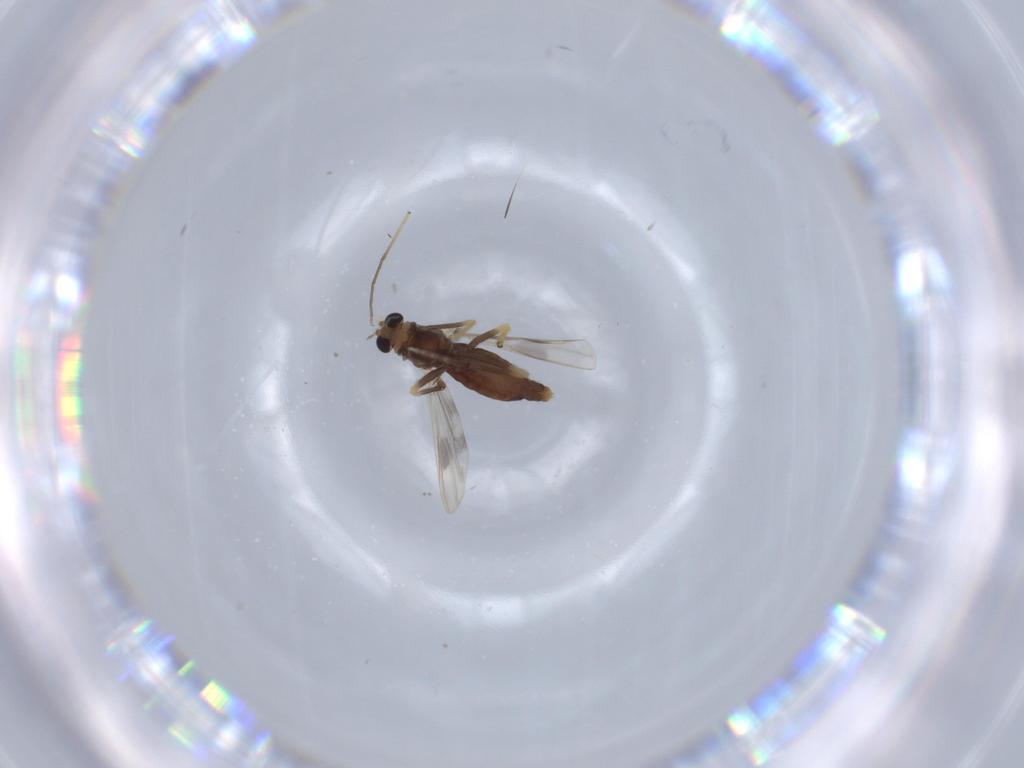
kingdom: Animalia
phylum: Arthropoda
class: Insecta
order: Diptera
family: Chironomidae
